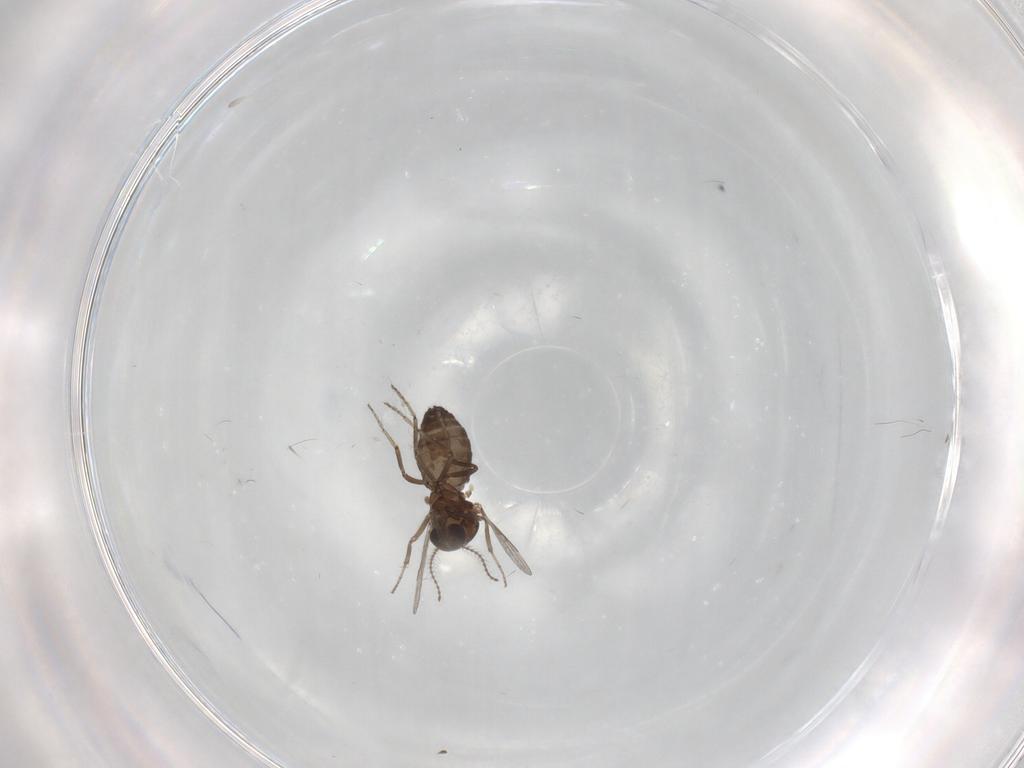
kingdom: Animalia
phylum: Arthropoda
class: Insecta
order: Diptera
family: Ceratopogonidae
